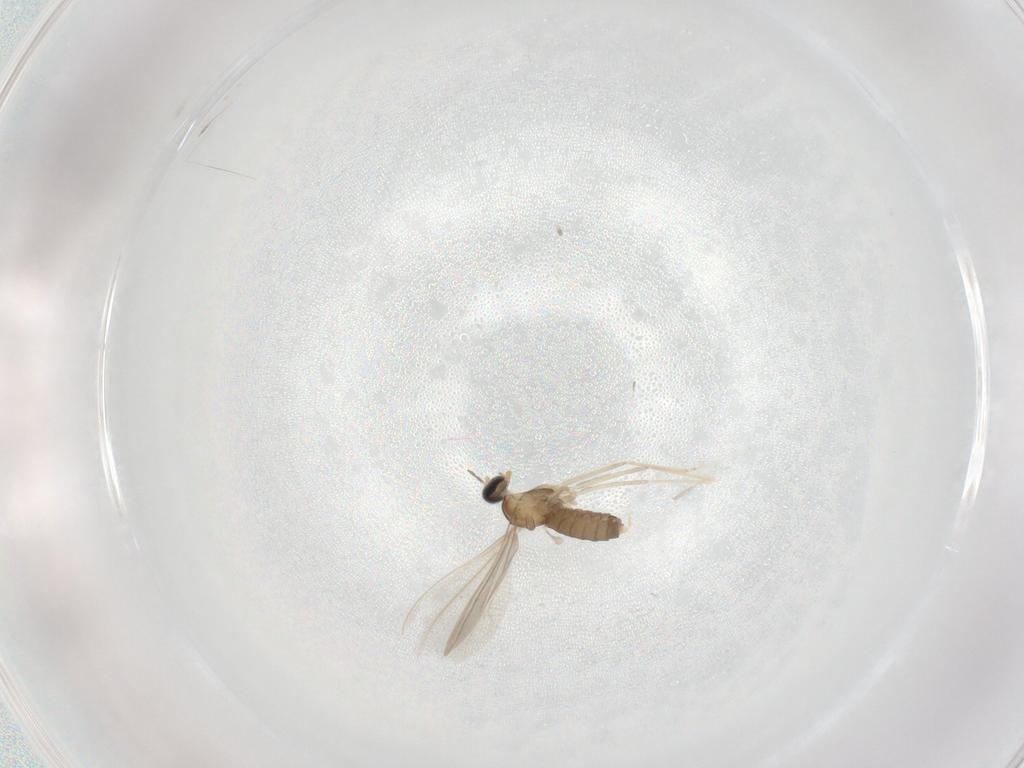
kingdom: Animalia
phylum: Arthropoda
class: Insecta
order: Diptera
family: Cecidomyiidae
